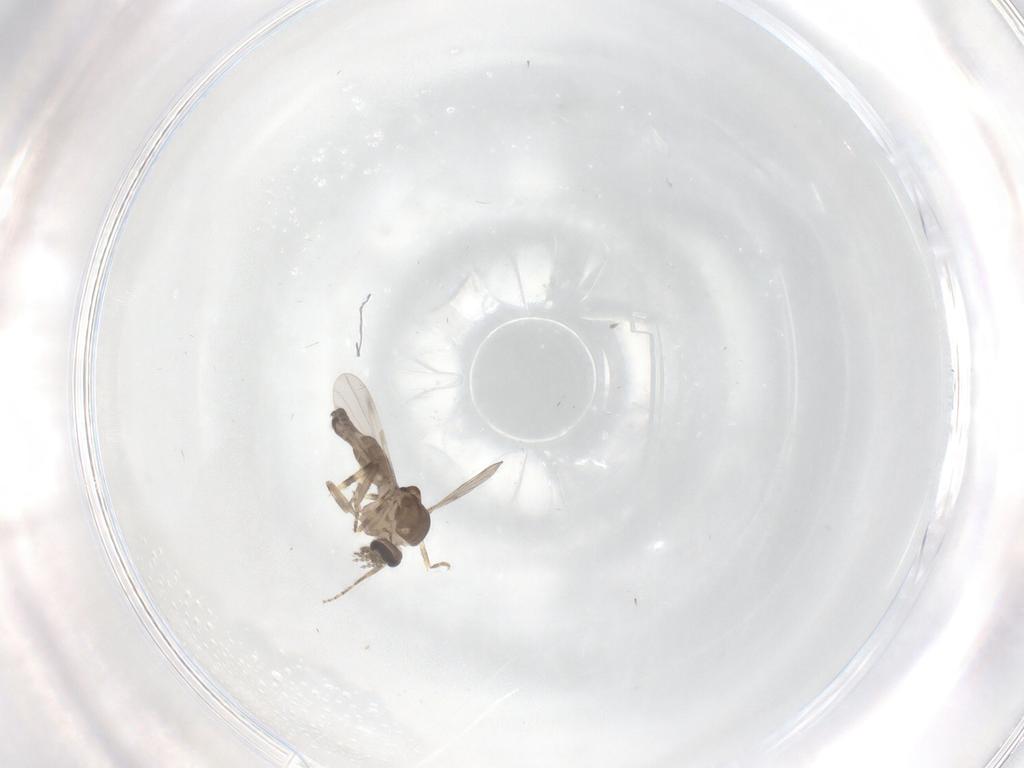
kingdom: Animalia
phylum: Arthropoda
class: Insecta
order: Diptera
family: Ceratopogonidae
